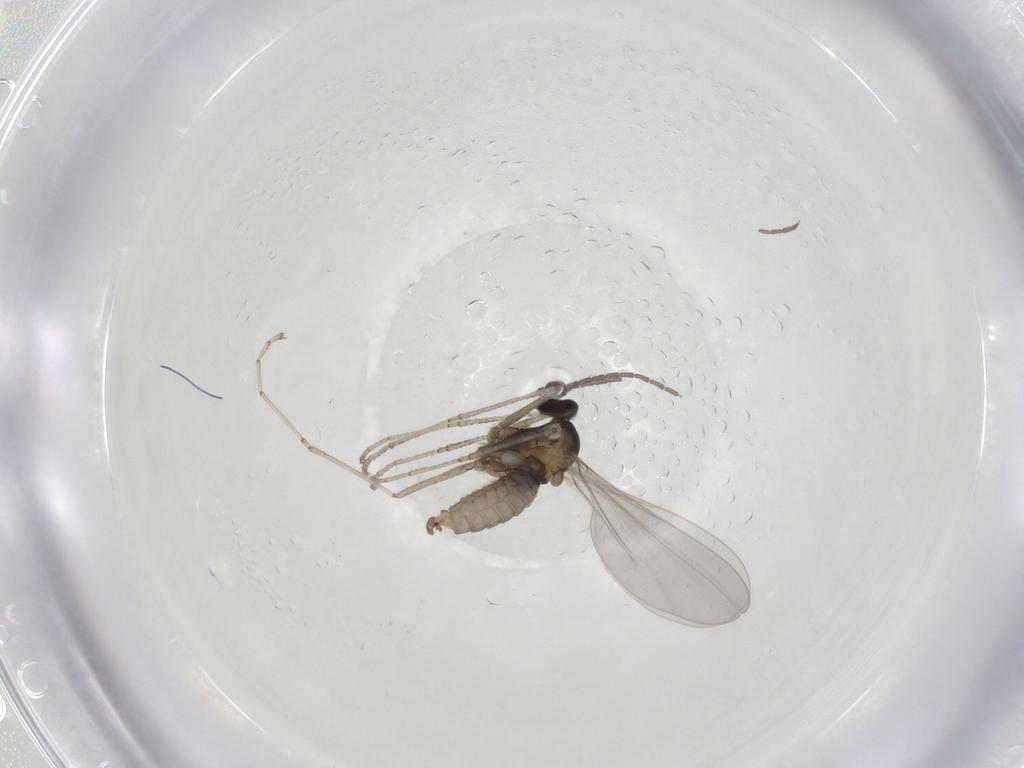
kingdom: Animalia
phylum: Arthropoda
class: Insecta
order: Diptera
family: Cecidomyiidae
